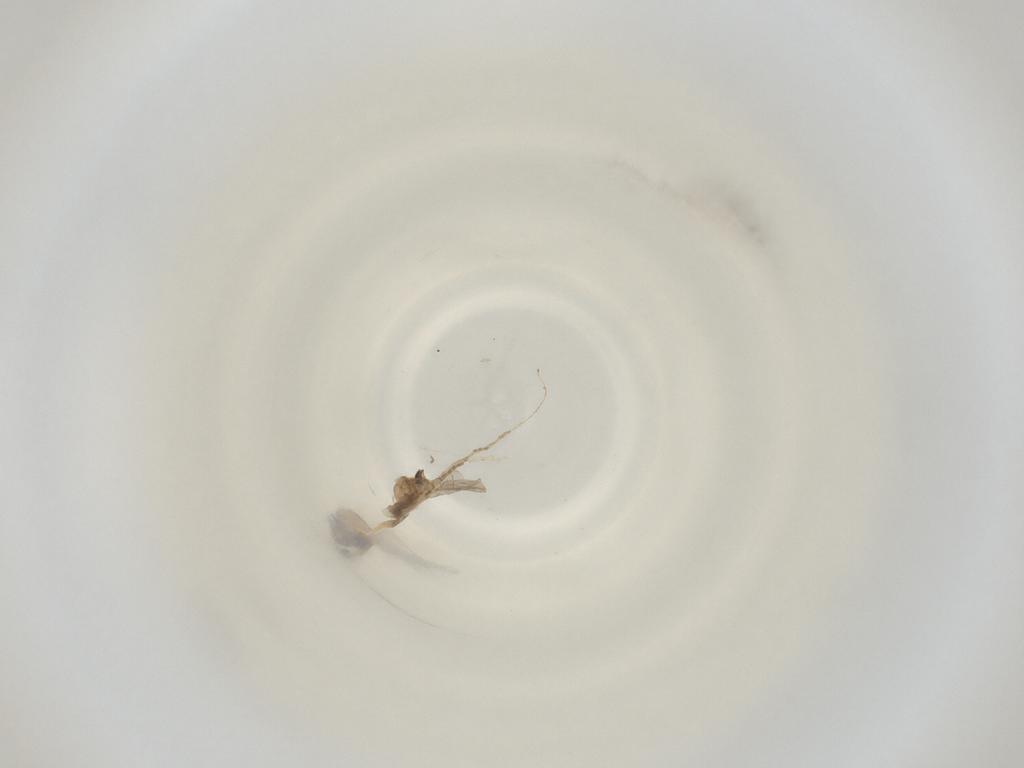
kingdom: Animalia
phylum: Arthropoda
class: Insecta
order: Diptera
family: Cecidomyiidae
